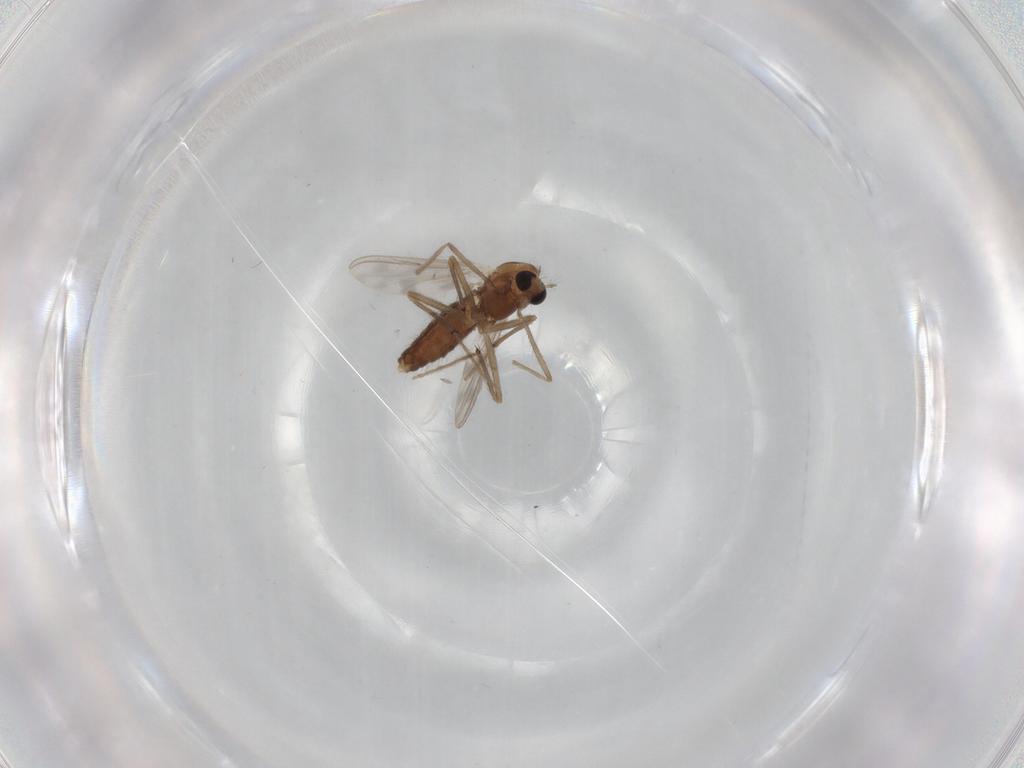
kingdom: Animalia
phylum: Arthropoda
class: Insecta
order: Diptera
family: Chironomidae
